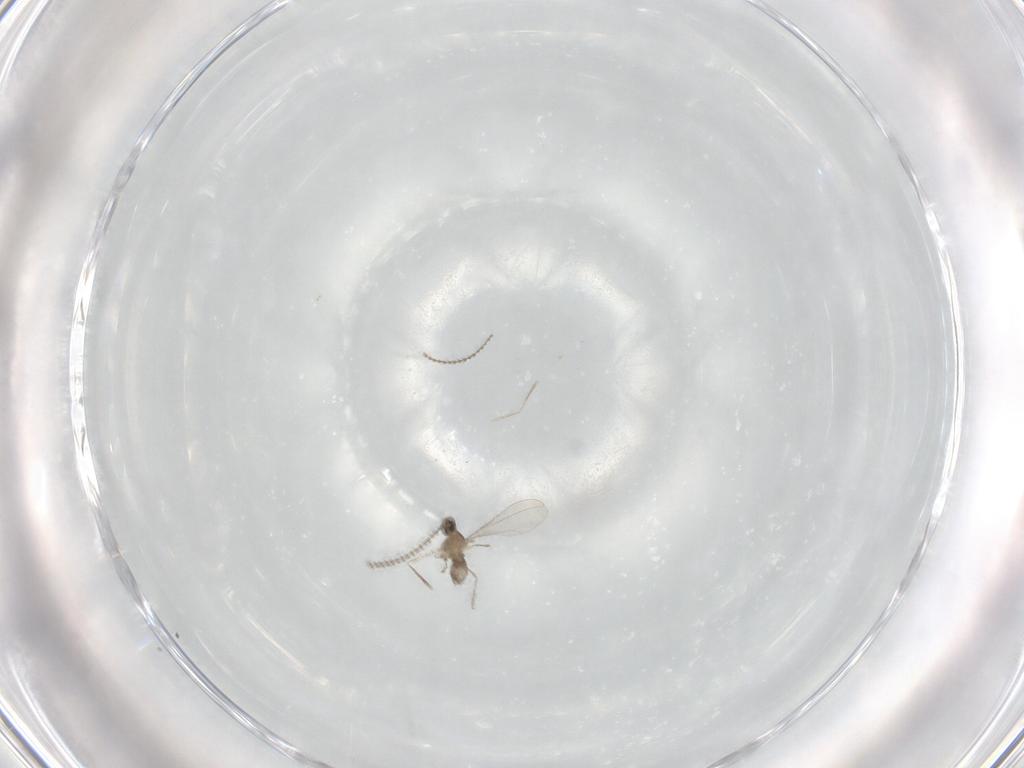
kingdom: Animalia
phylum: Arthropoda
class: Insecta
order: Diptera
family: Cecidomyiidae
